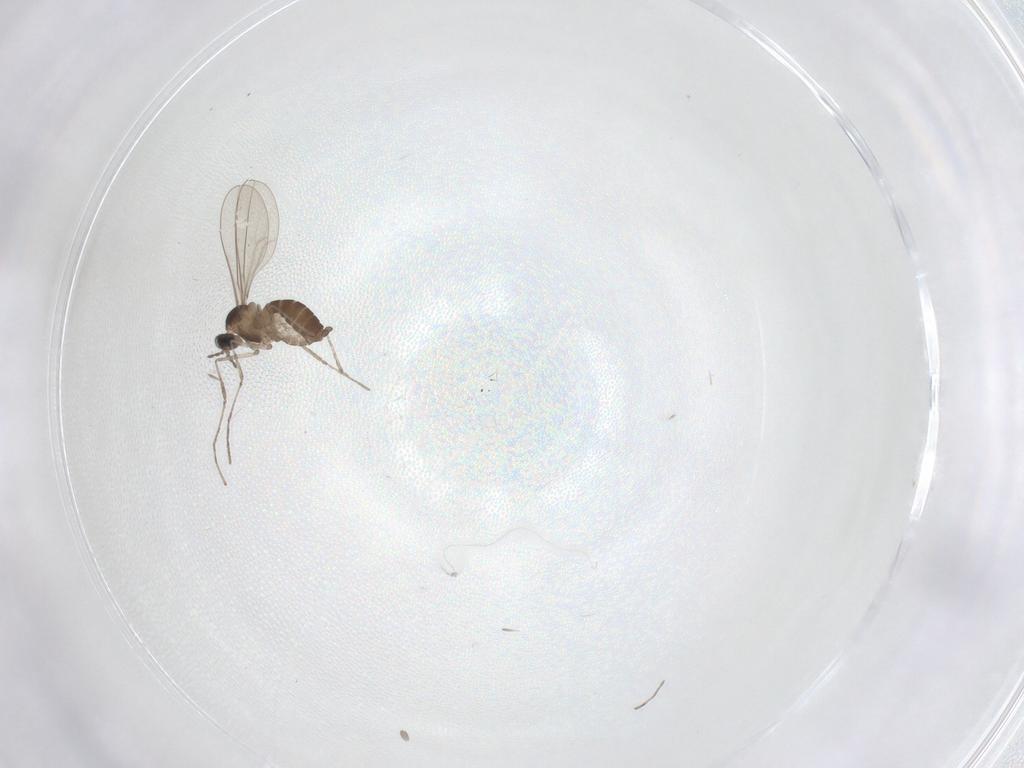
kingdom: Animalia
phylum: Arthropoda
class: Insecta
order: Diptera
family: Cecidomyiidae
